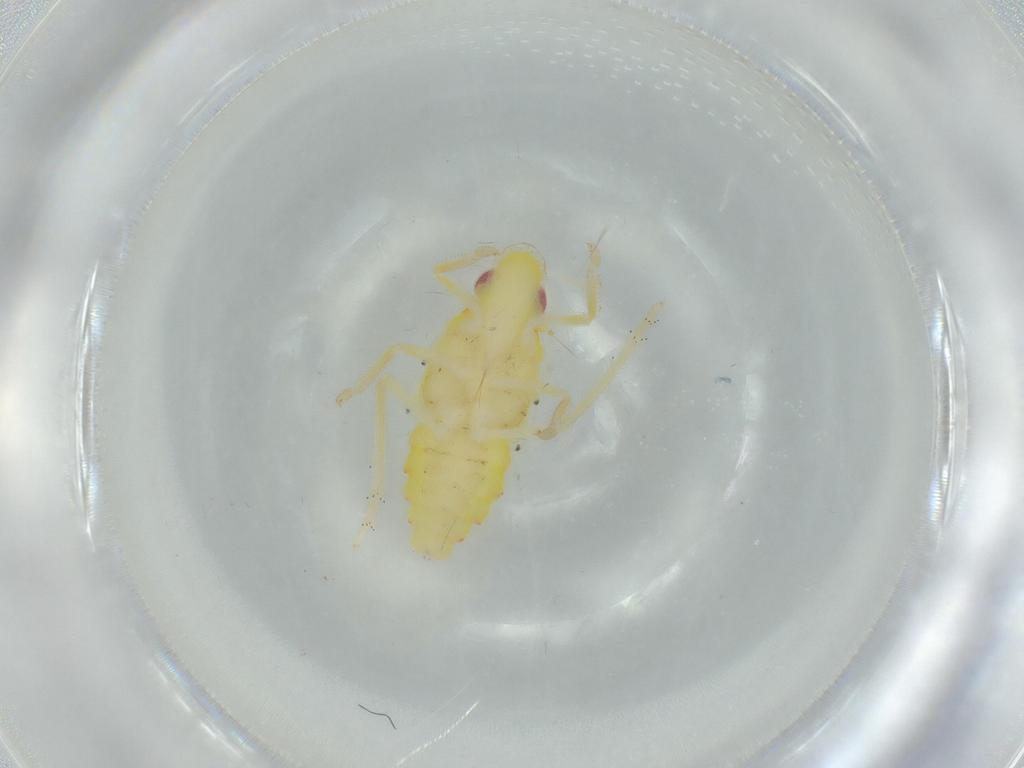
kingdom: Animalia
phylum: Arthropoda
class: Insecta
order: Hemiptera
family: Tropiduchidae
